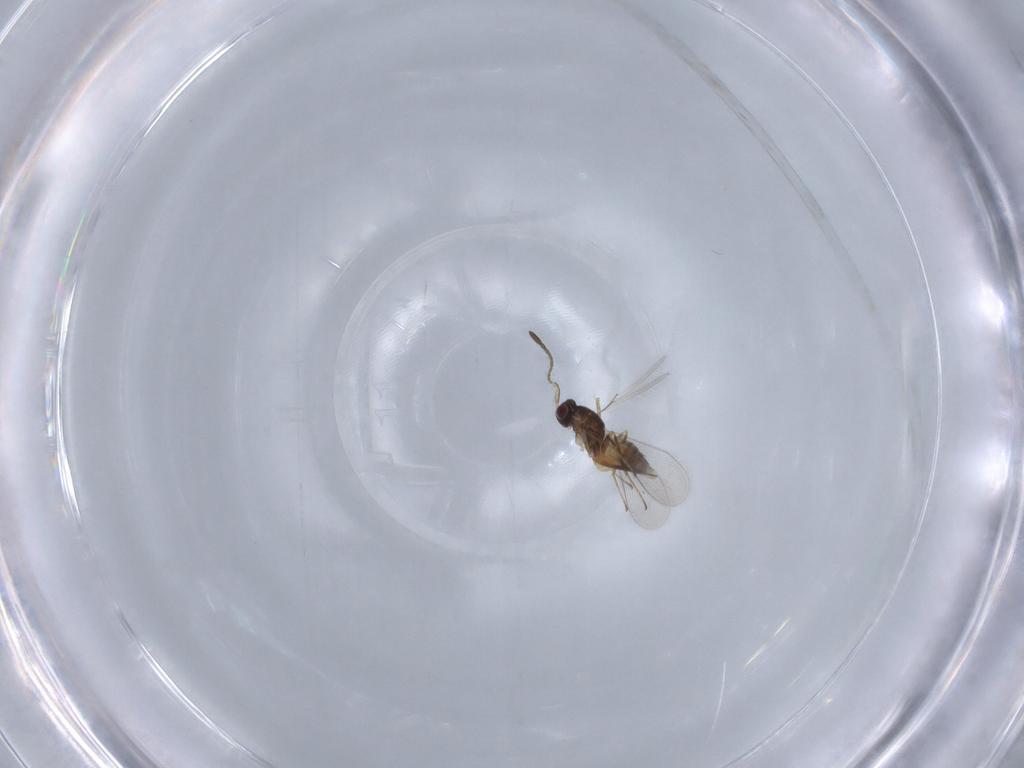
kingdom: Animalia
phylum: Arthropoda
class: Insecta
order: Hymenoptera
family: Mymaridae
